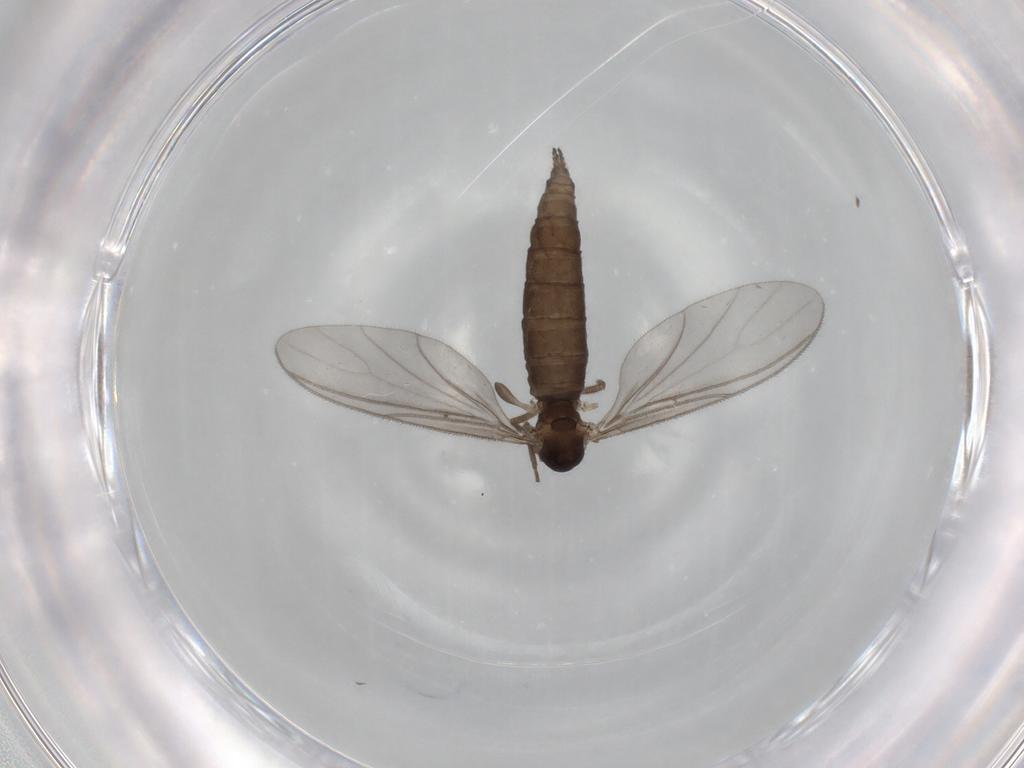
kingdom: Animalia
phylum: Arthropoda
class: Insecta
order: Diptera
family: Sciaridae
